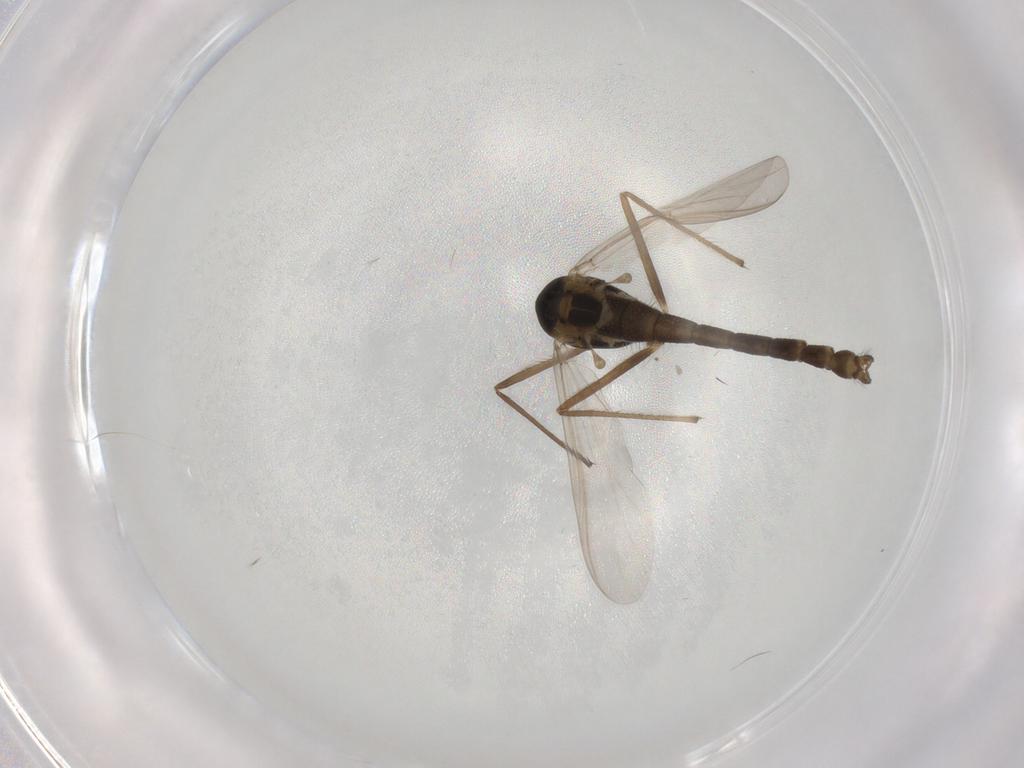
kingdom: Animalia
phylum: Arthropoda
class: Insecta
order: Diptera
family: Chironomidae
